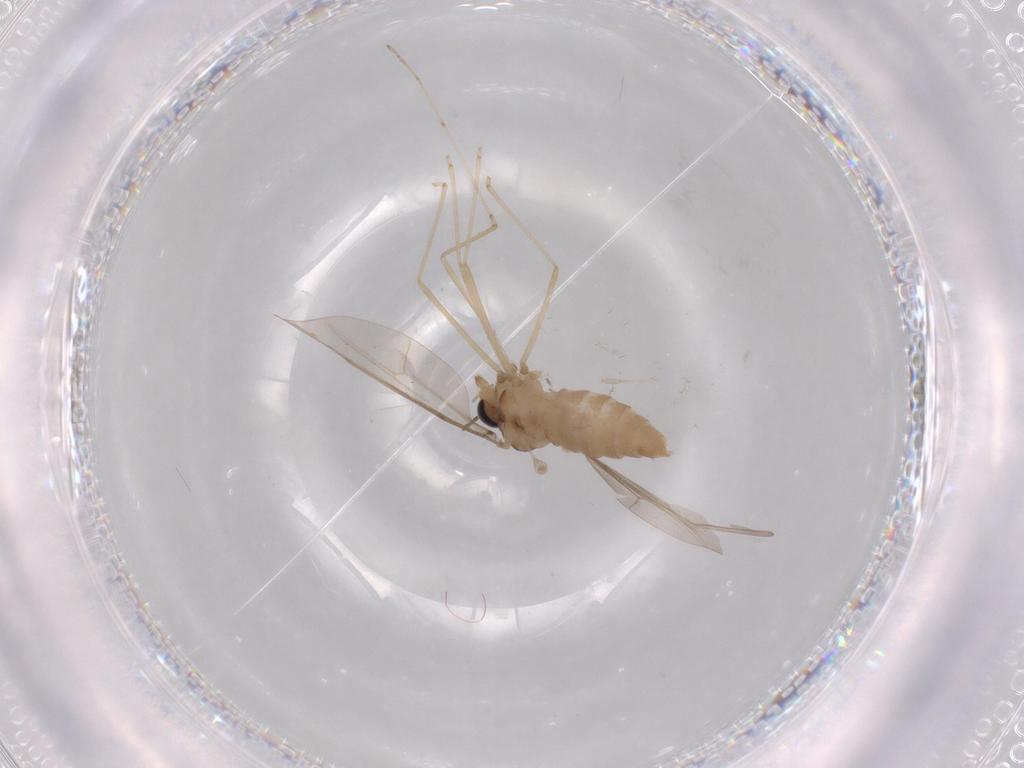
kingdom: Animalia
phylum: Arthropoda
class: Insecta
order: Diptera
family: Cecidomyiidae
